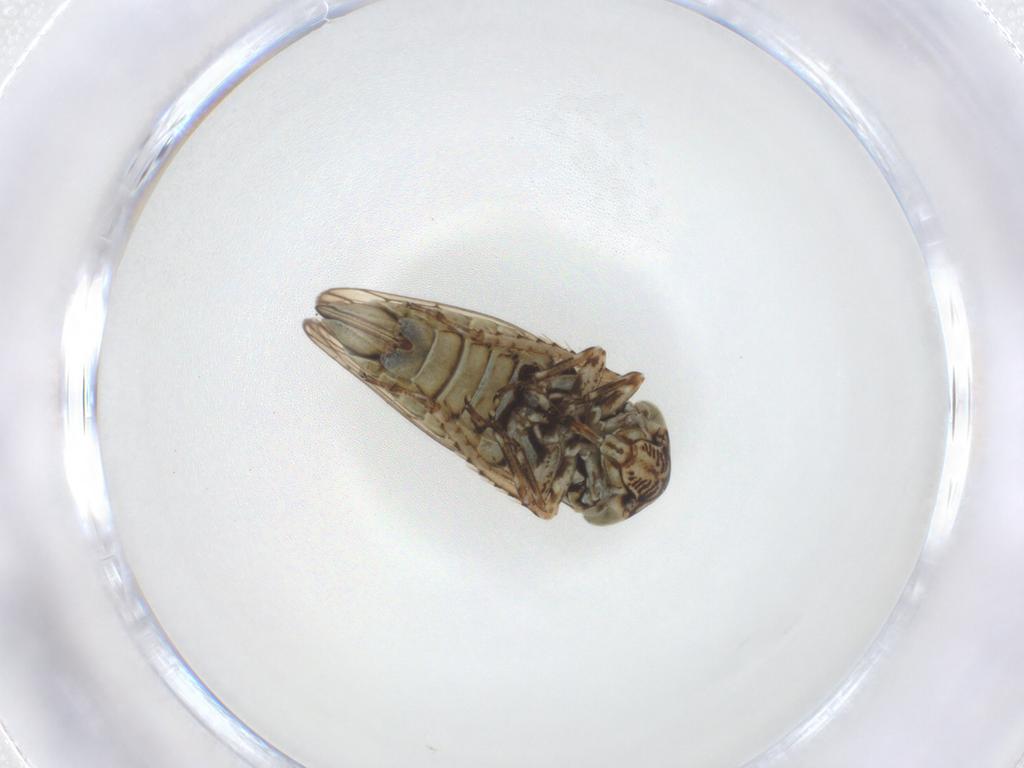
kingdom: Animalia
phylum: Arthropoda
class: Insecta
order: Hemiptera
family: Cicadellidae
